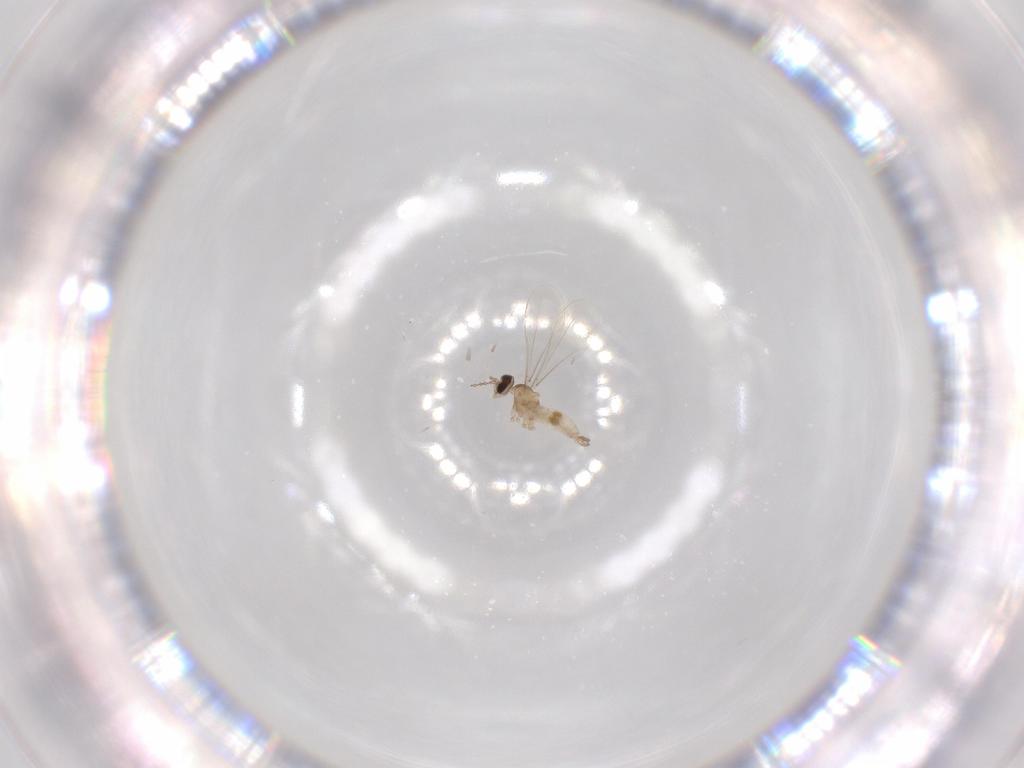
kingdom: Animalia
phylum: Arthropoda
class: Insecta
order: Diptera
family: Cecidomyiidae
